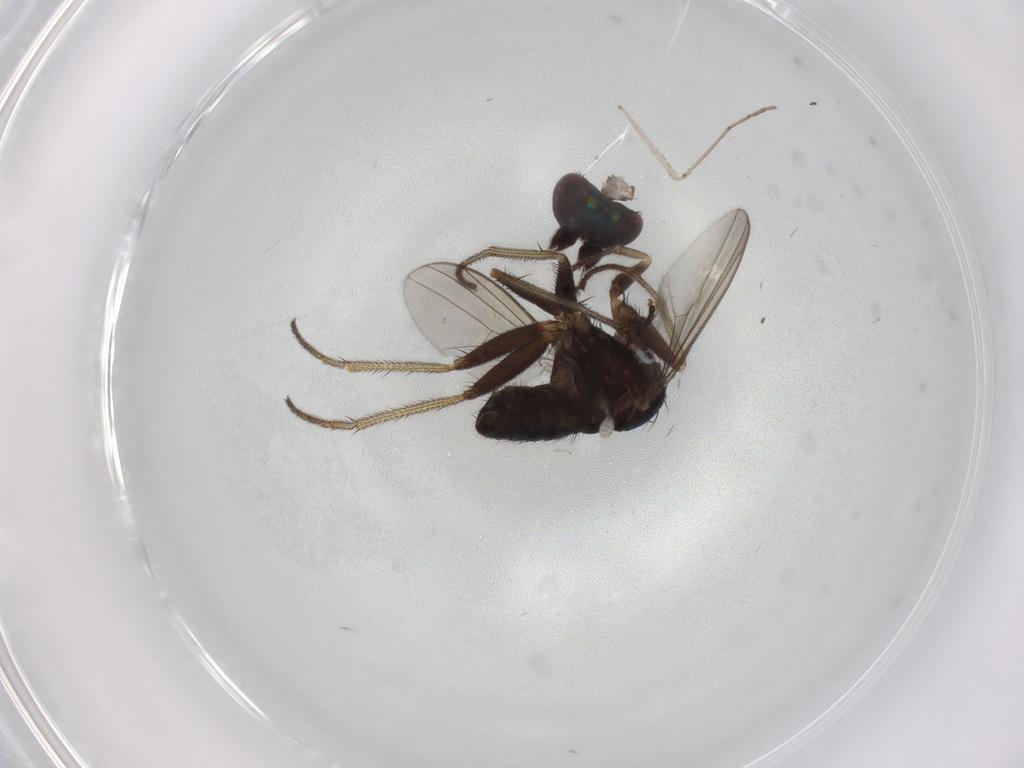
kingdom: Animalia
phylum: Arthropoda
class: Insecta
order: Diptera
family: Dolichopodidae
